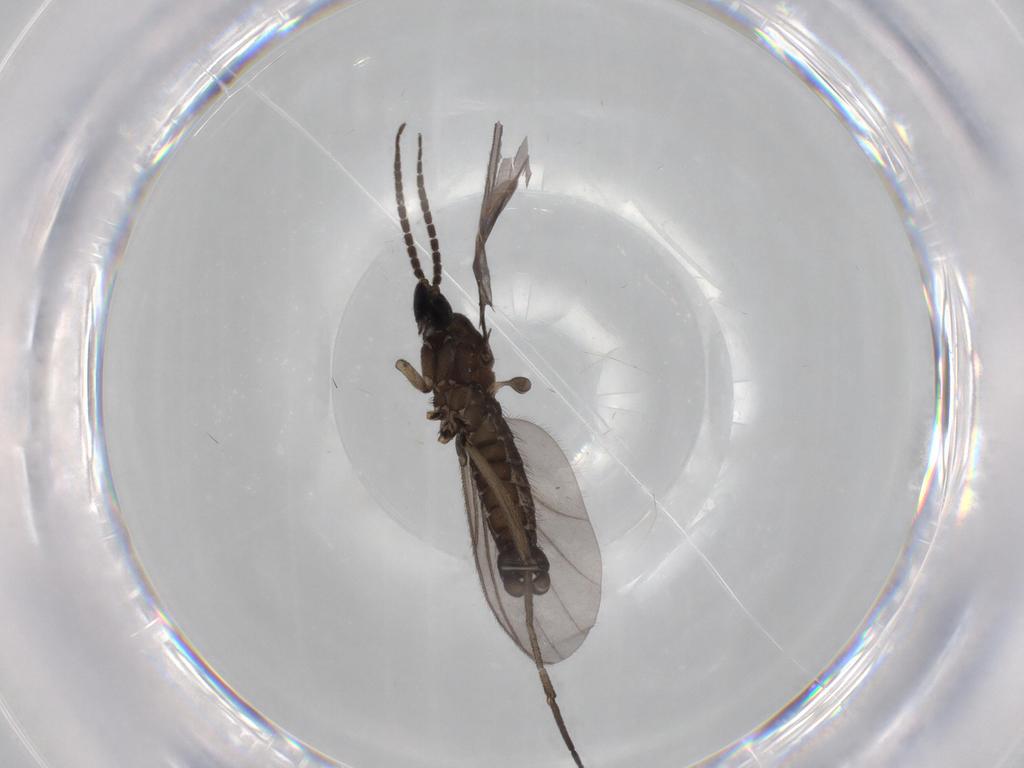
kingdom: Animalia
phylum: Arthropoda
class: Insecta
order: Diptera
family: Sciaridae
